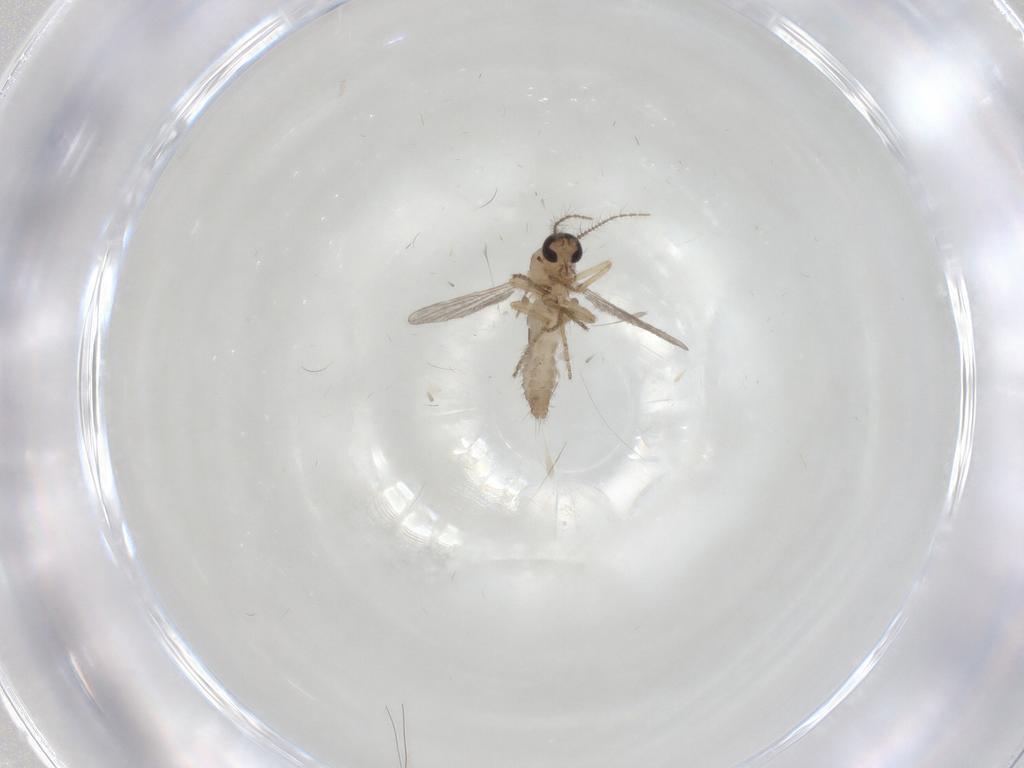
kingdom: Animalia
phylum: Arthropoda
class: Insecta
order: Diptera
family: Ceratopogonidae
